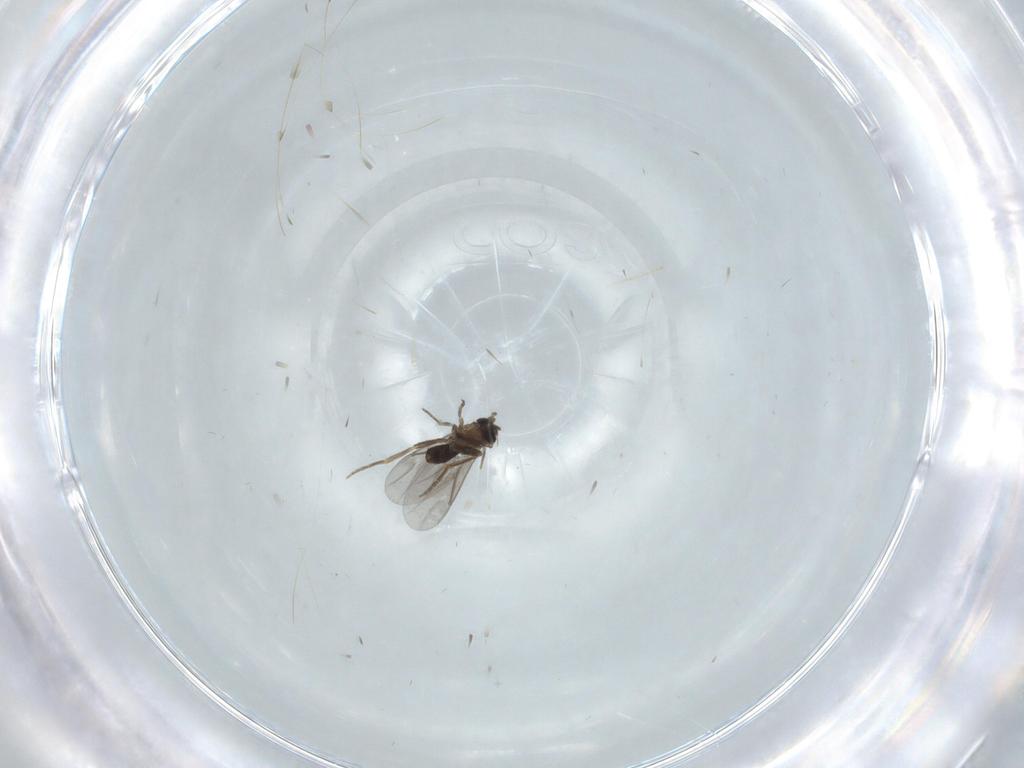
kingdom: Animalia
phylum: Arthropoda
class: Insecta
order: Diptera
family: Chironomidae
